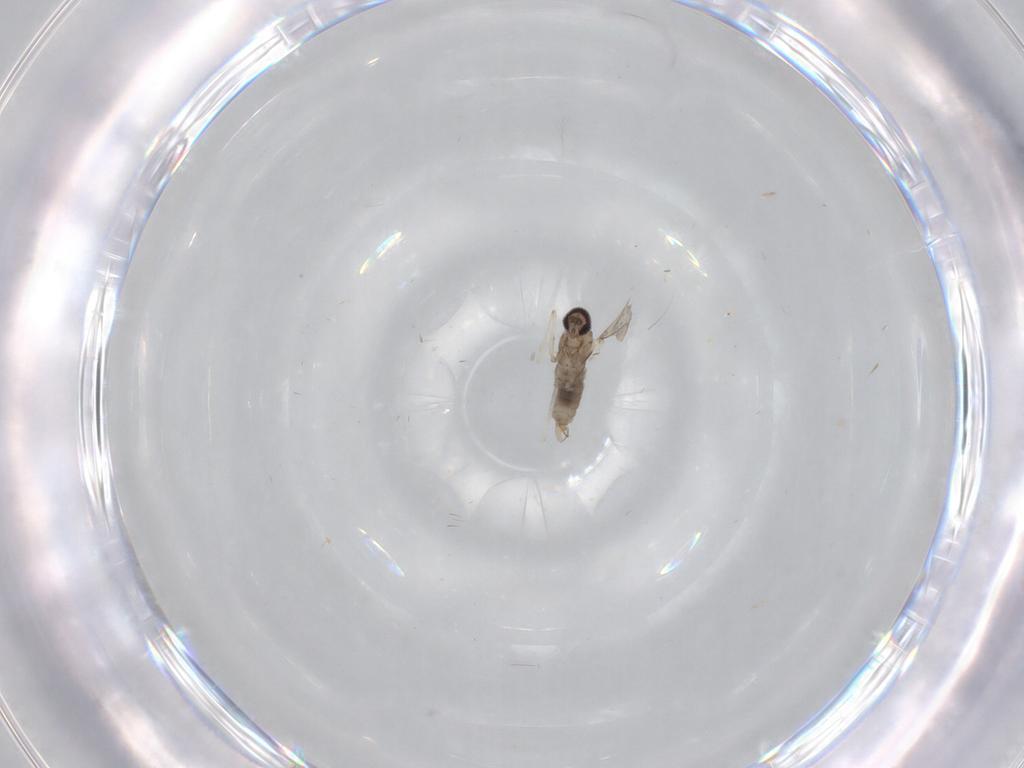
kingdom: Animalia
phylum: Arthropoda
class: Insecta
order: Diptera
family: Cecidomyiidae
